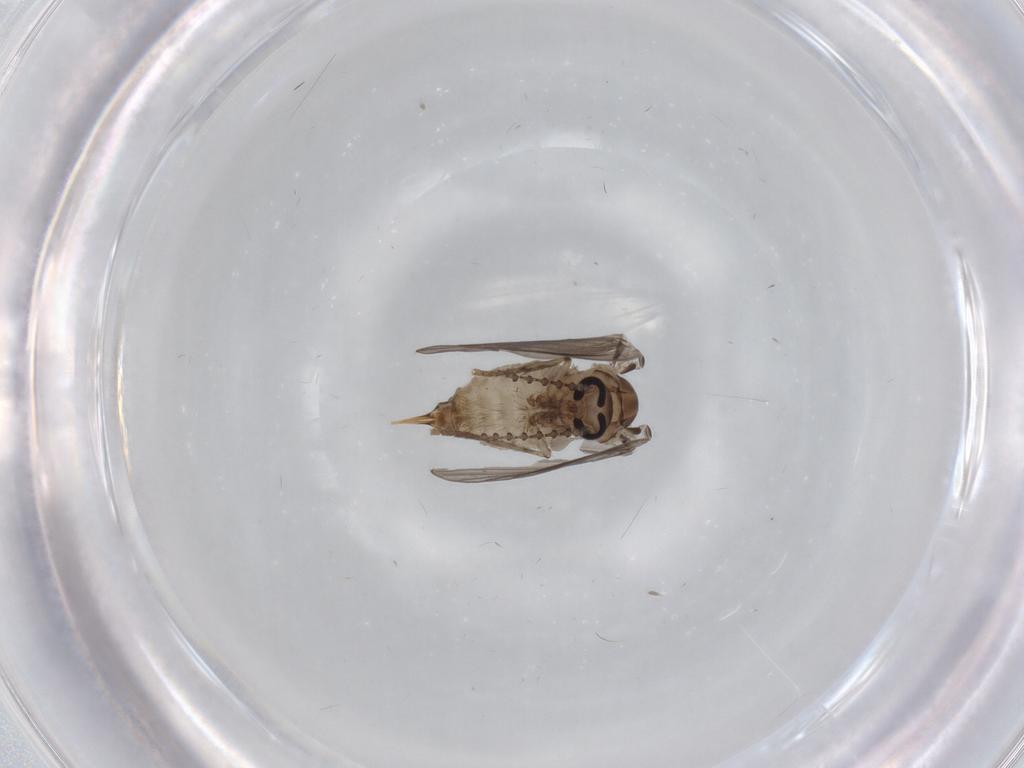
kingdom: Animalia
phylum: Arthropoda
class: Insecta
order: Diptera
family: Psychodidae
